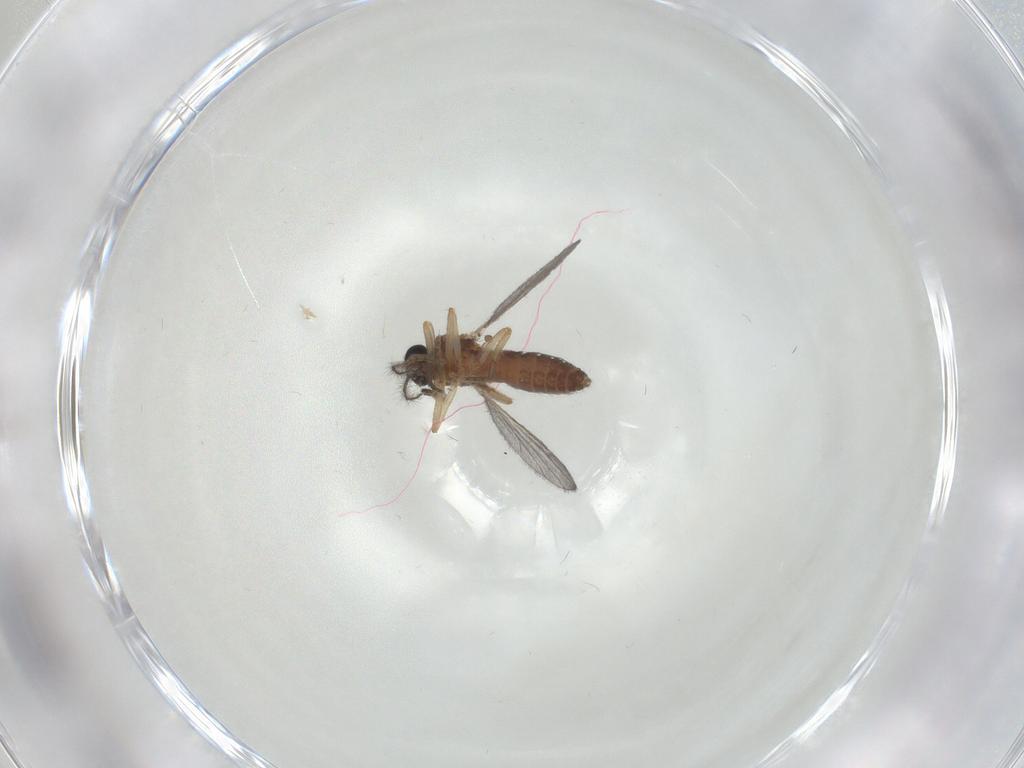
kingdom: Animalia
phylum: Arthropoda
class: Insecta
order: Diptera
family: Ceratopogonidae
